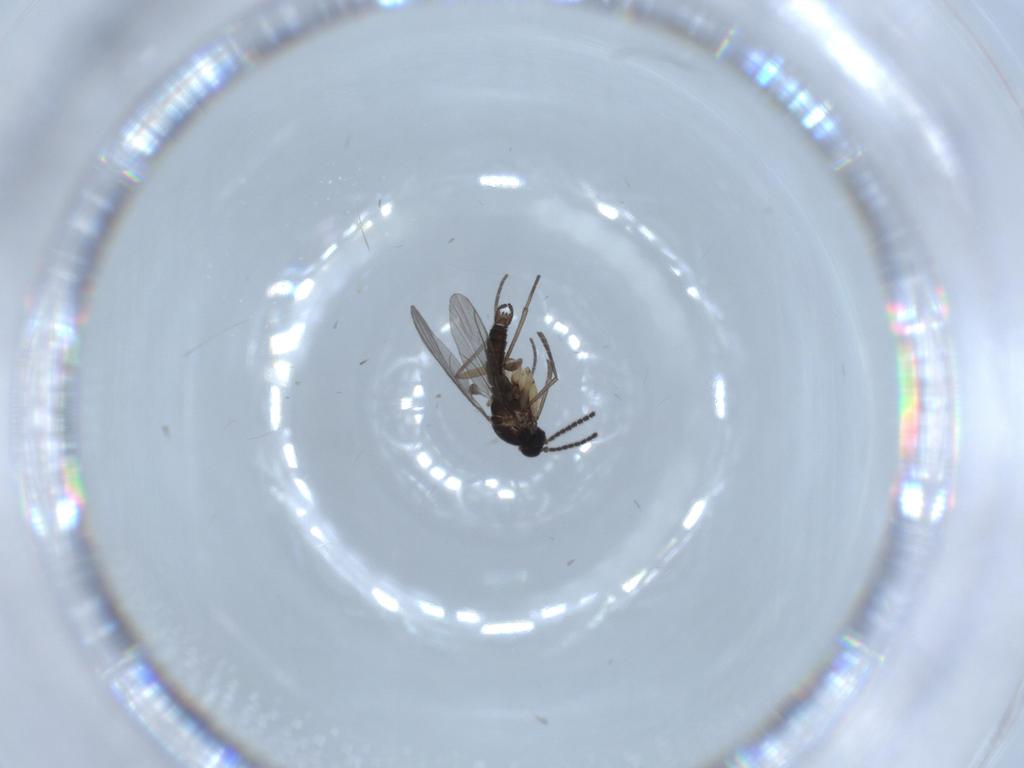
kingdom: Animalia
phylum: Arthropoda
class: Insecta
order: Diptera
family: Sciaridae
